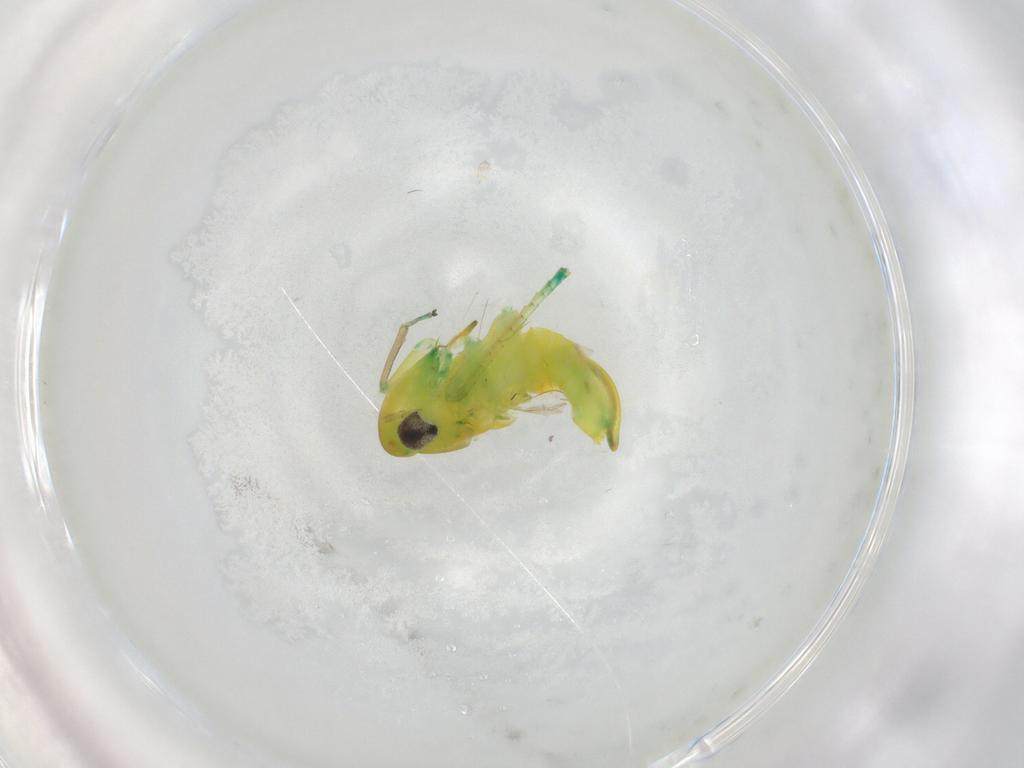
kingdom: Animalia
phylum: Arthropoda
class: Insecta
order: Hemiptera
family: Cicadellidae
